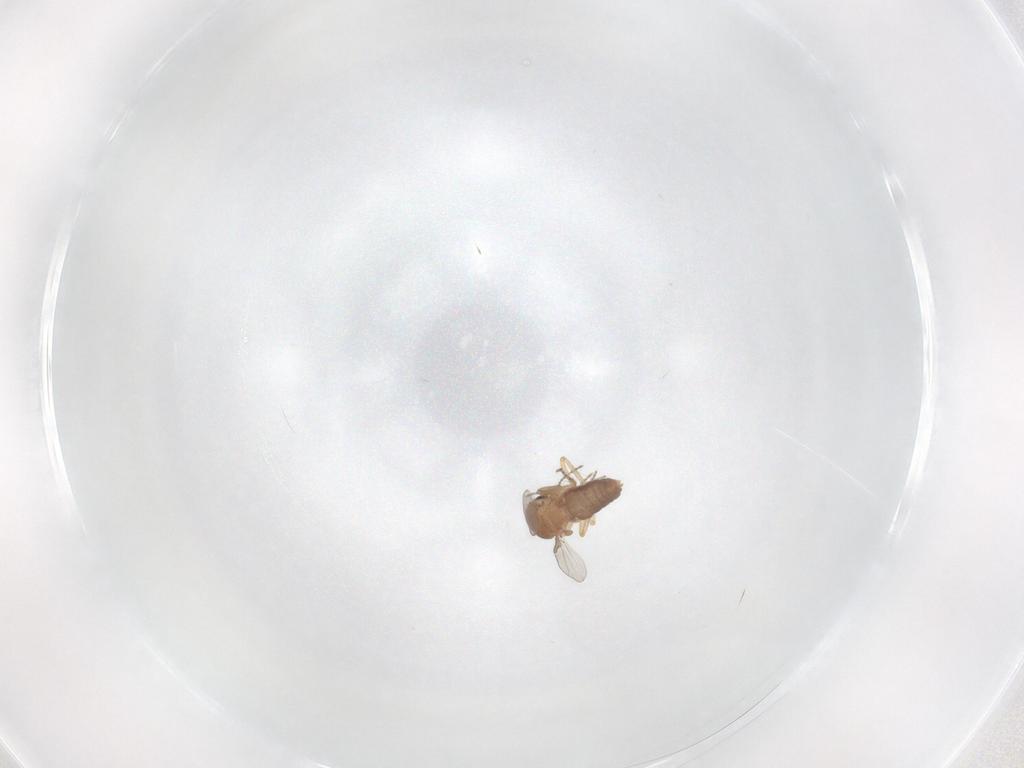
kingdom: Animalia
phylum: Arthropoda
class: Insecta
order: Diptera
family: Ceratopogonidae
